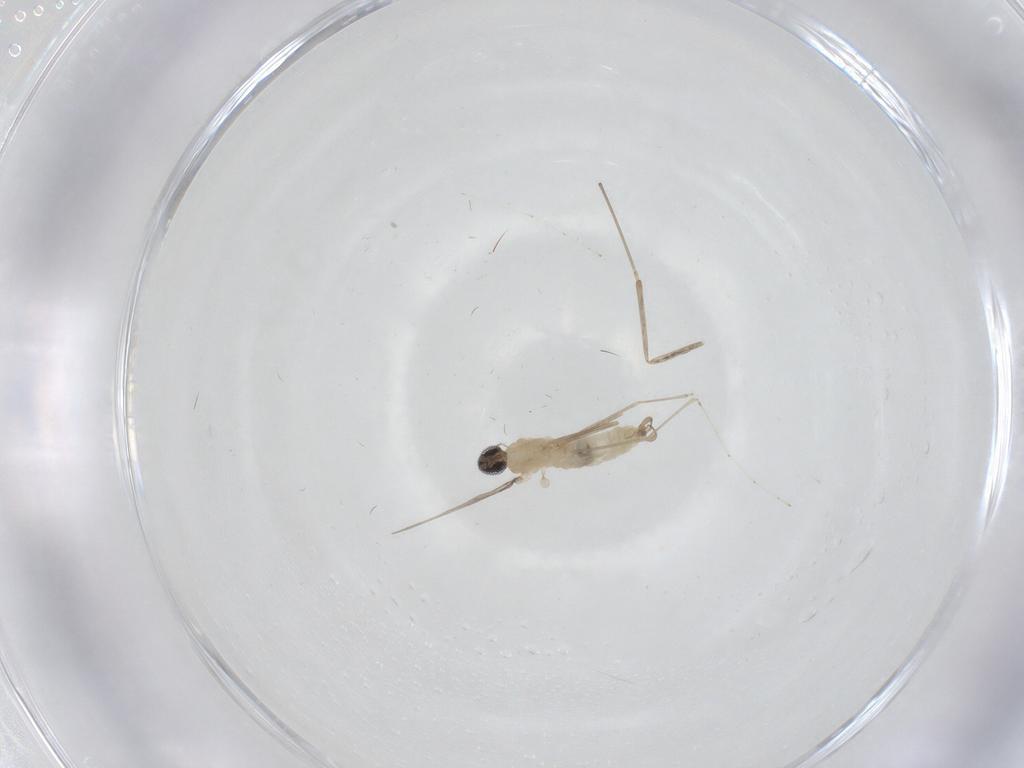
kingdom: Animalia
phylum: Arthropoda
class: Insecta
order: Diptera
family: Cecidomyiidae
